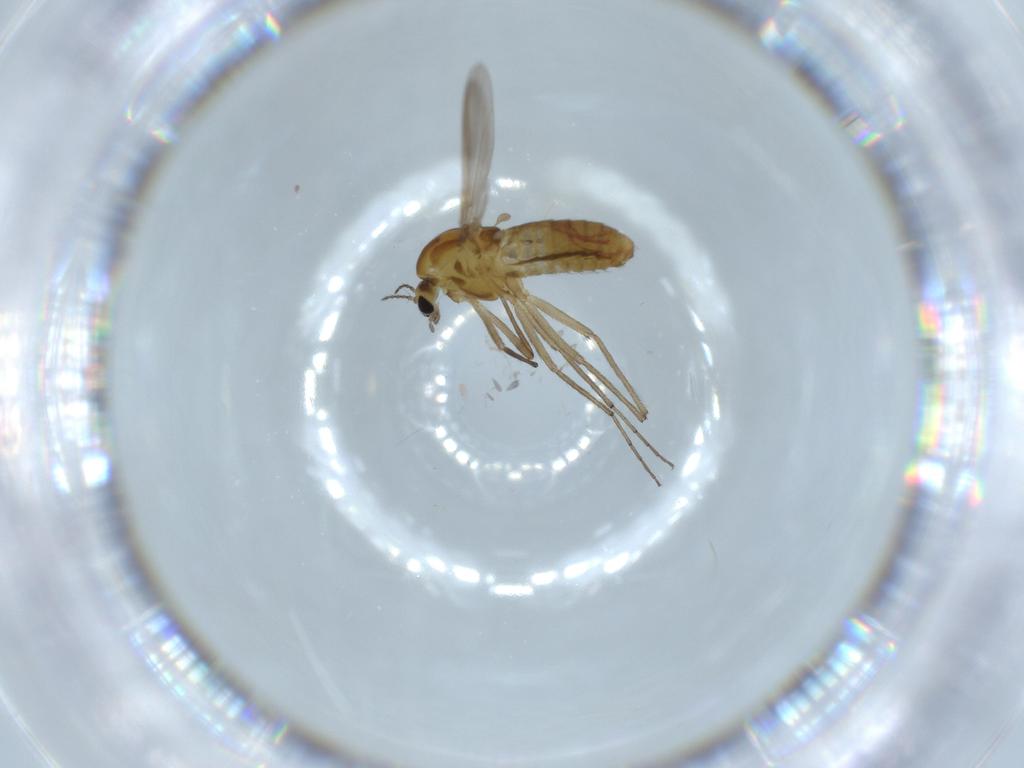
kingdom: Animalia
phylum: Arthropoda
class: Insecta
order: Diptera
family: Chironomidae
